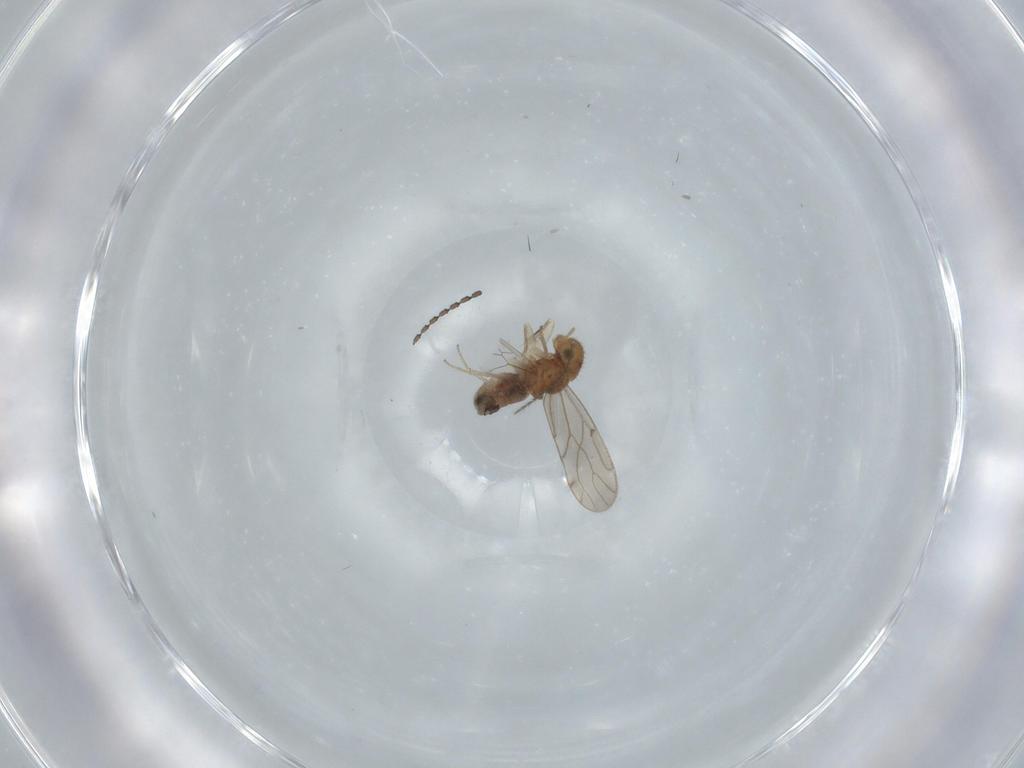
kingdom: Animalia
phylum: Arthropoda
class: Insecta
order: Psocodea
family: Ectopsocidae
